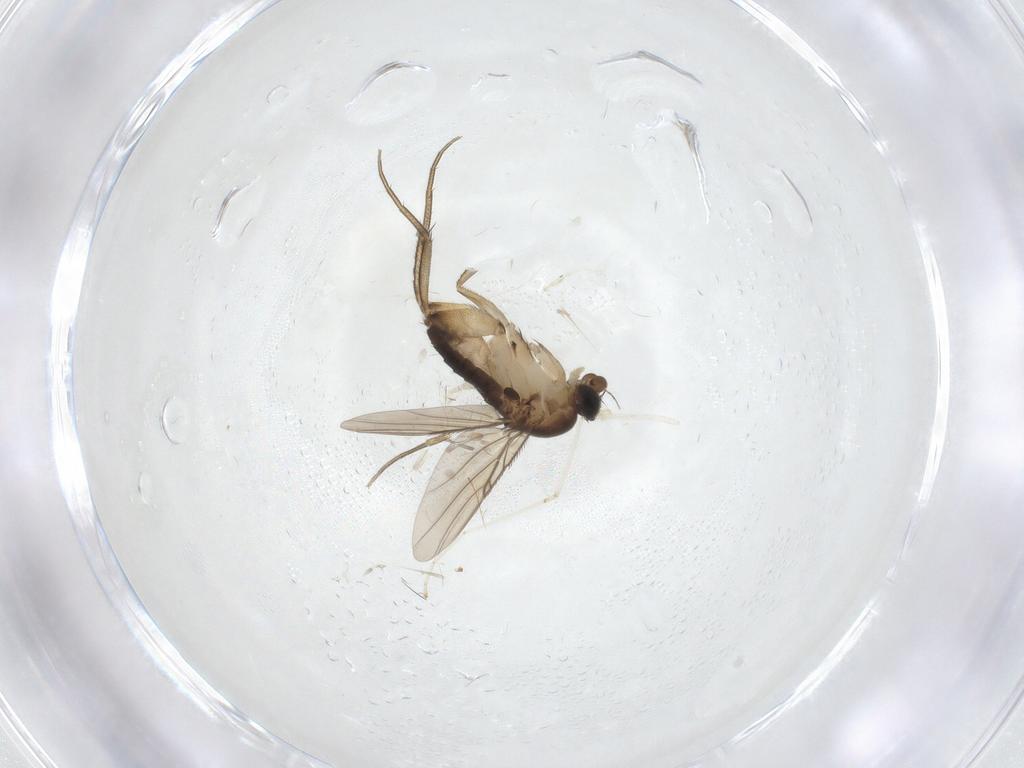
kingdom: Animalia
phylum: Arthropoda
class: Insecta
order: Diptera
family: Phoridae
